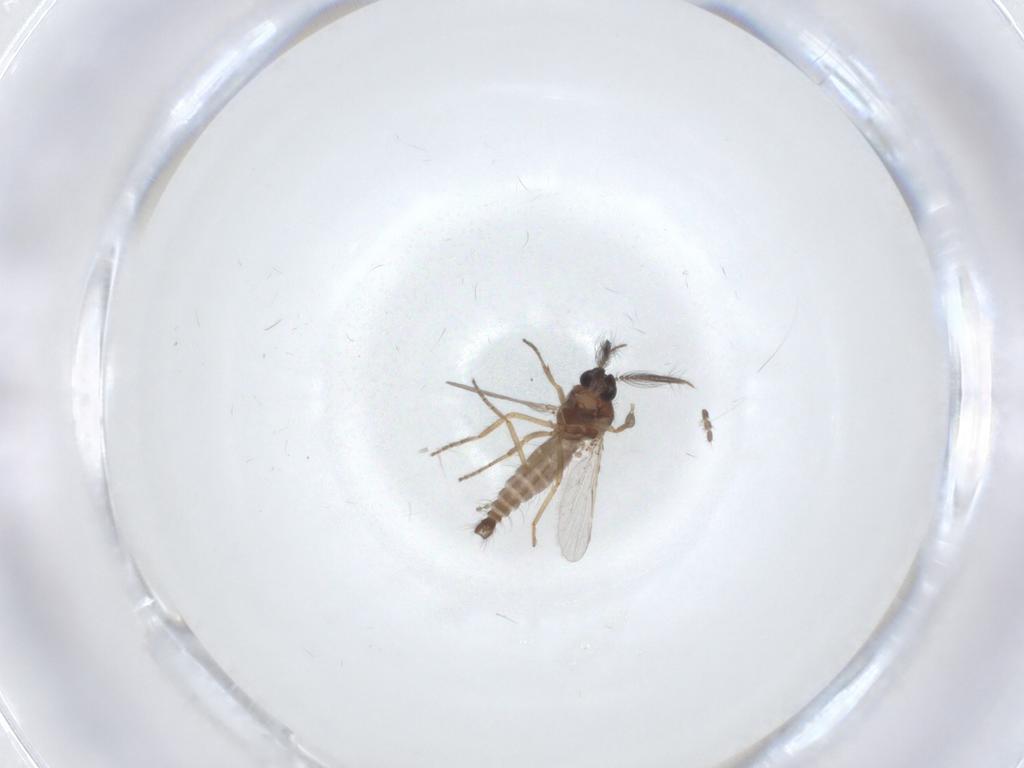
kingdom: Animalia
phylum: Arthropoda
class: Insecta
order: Diptera
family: Limoniidae
